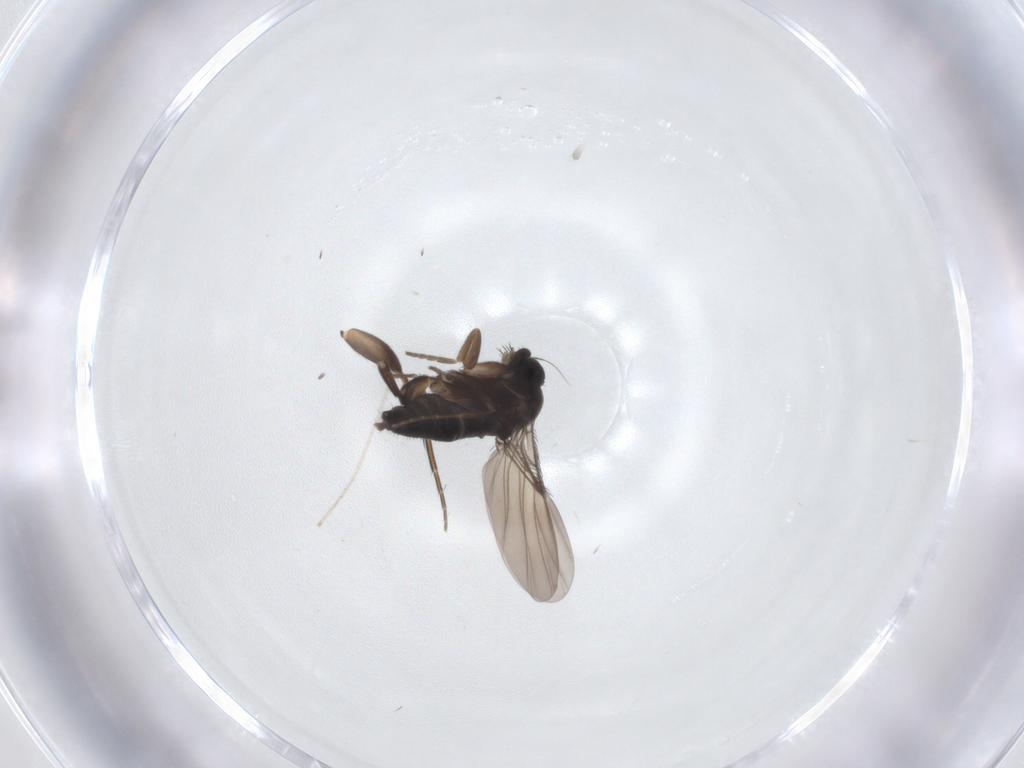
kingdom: Animalia
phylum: Arthropoda
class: Insecta
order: Diptera
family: Phoridae
